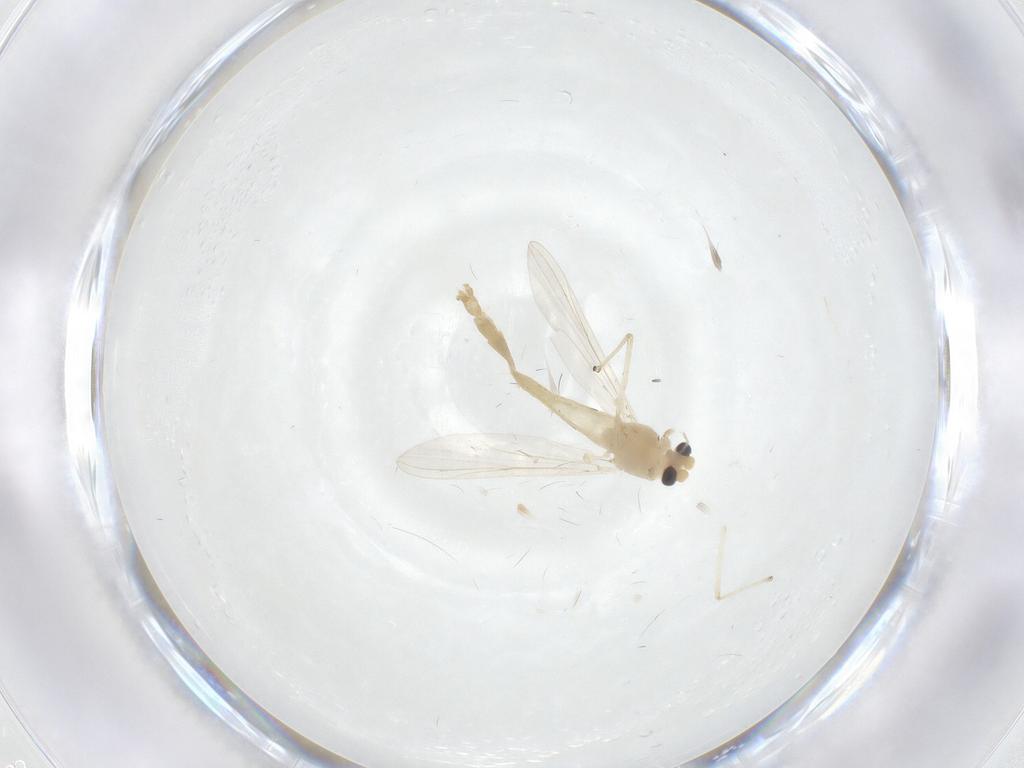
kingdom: Animalia
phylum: Arthropoda
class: Insecta
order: Diptera
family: Chironomidae
